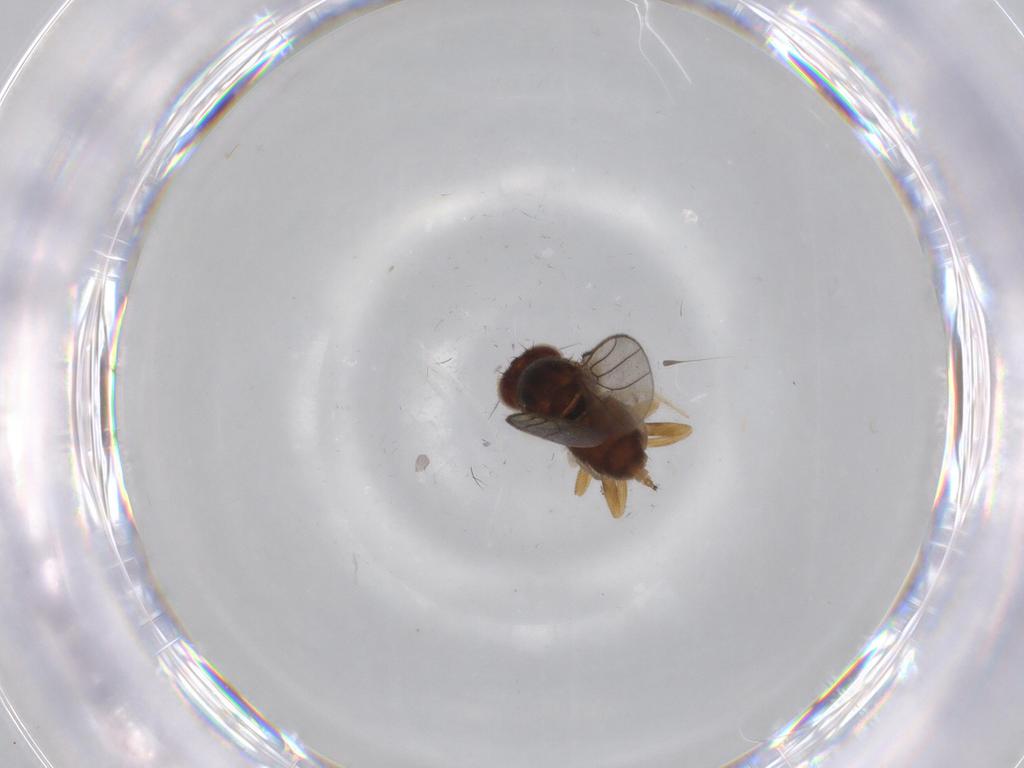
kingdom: Animalia
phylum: Arthropoda
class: Insecta
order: Diptera
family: Chloropidae
